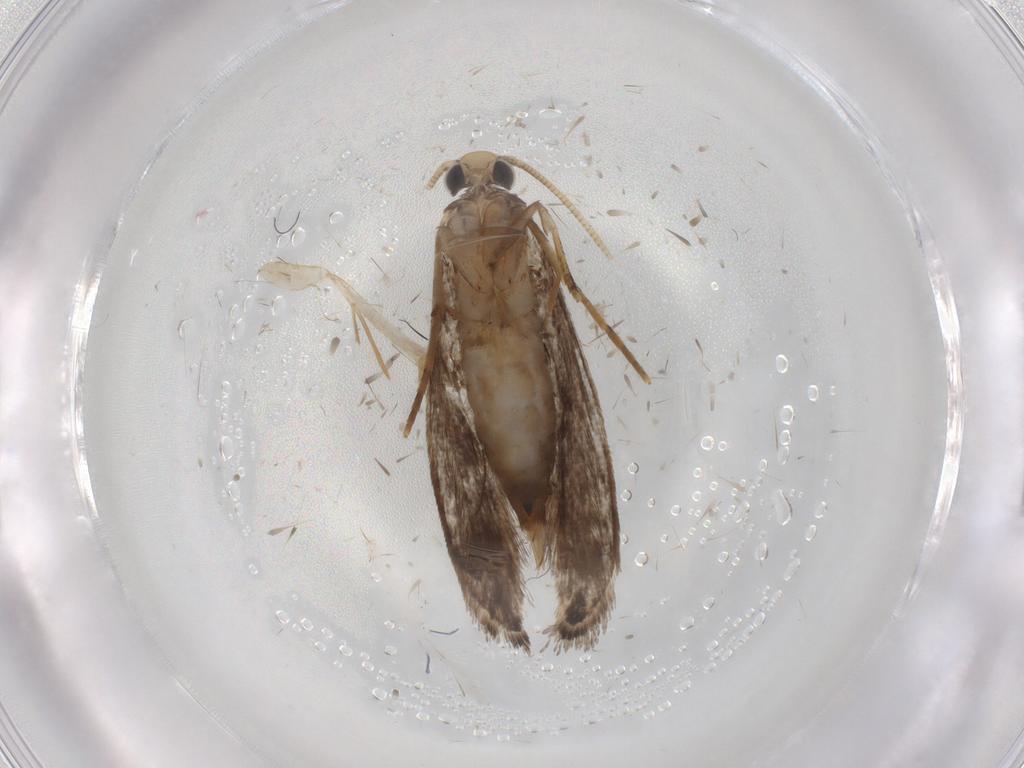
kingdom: Animalia
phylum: Arthropoda
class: Insecta
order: Lepidoptera
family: Tineidae
